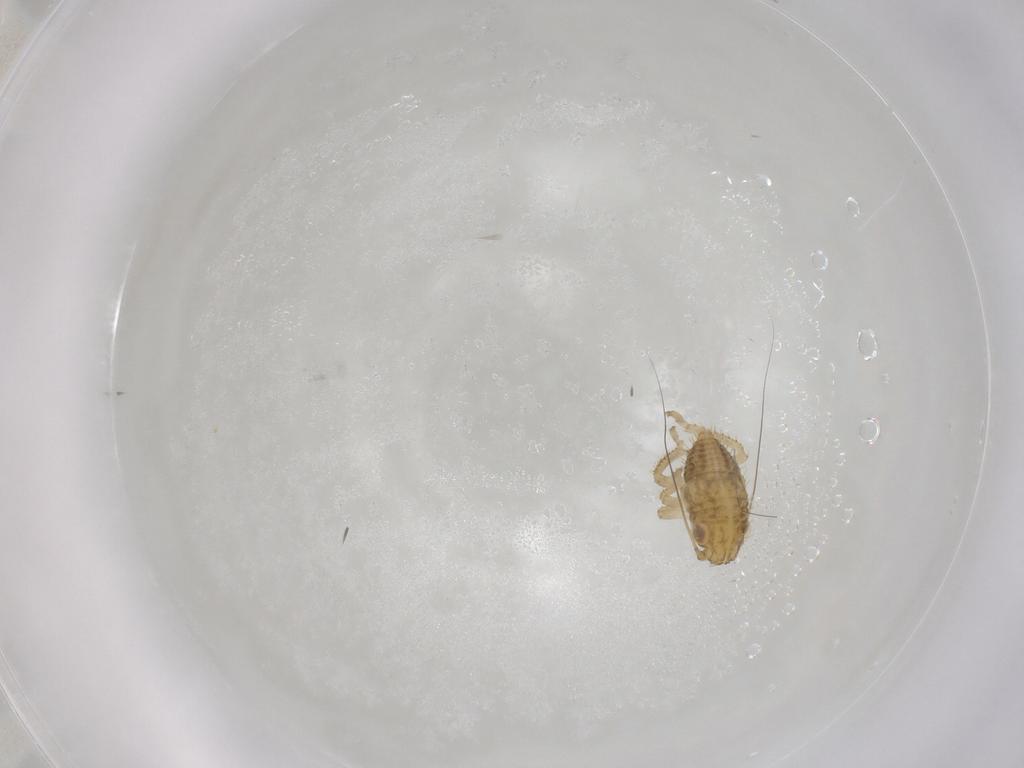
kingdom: Animalia
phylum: Arthropoda
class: Insecta
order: Hemiptera
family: Cicadellidae
